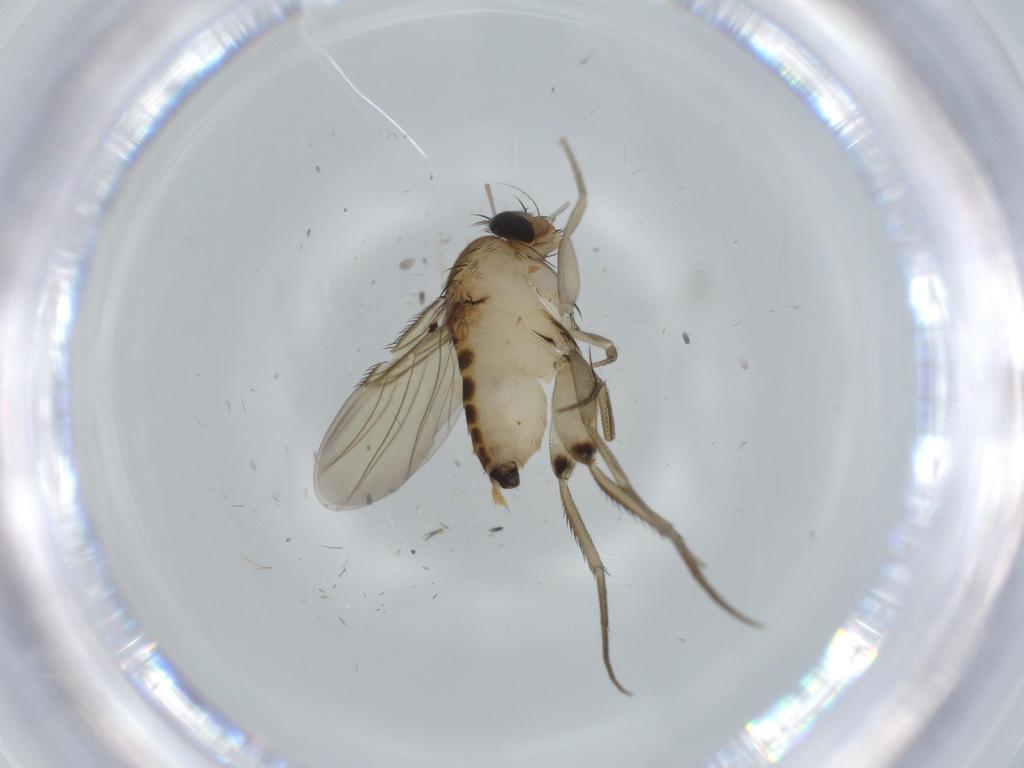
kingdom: Animalia
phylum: Arthropoda
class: Insecta
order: Diptera
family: Phoridae
